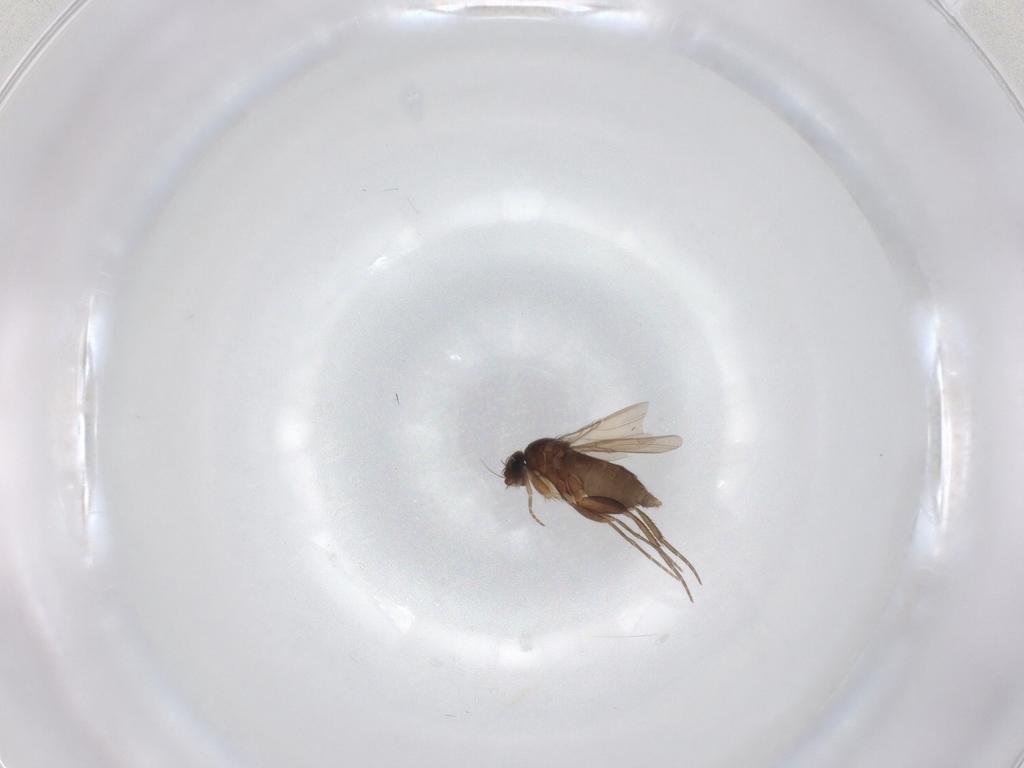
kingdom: Animalia
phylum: Arthropoda
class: Insecta
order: Diptera
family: Phoridae
